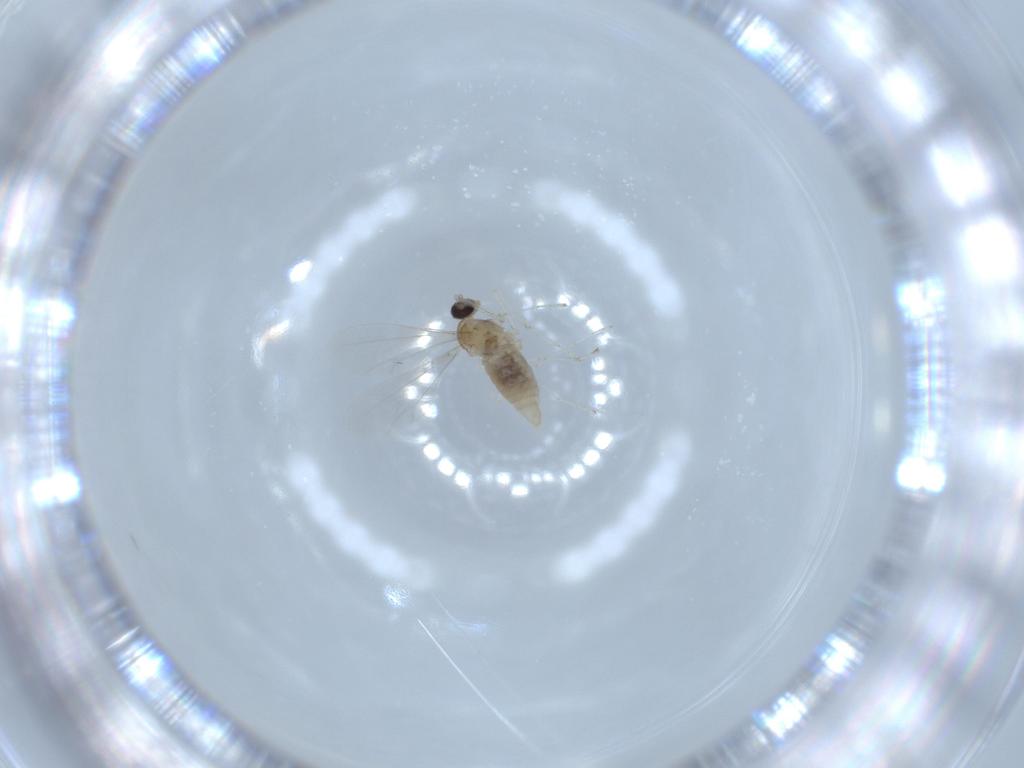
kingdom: Animalia
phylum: Arthropoda
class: Insecta
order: Diptera
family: Cecidomyiidae
